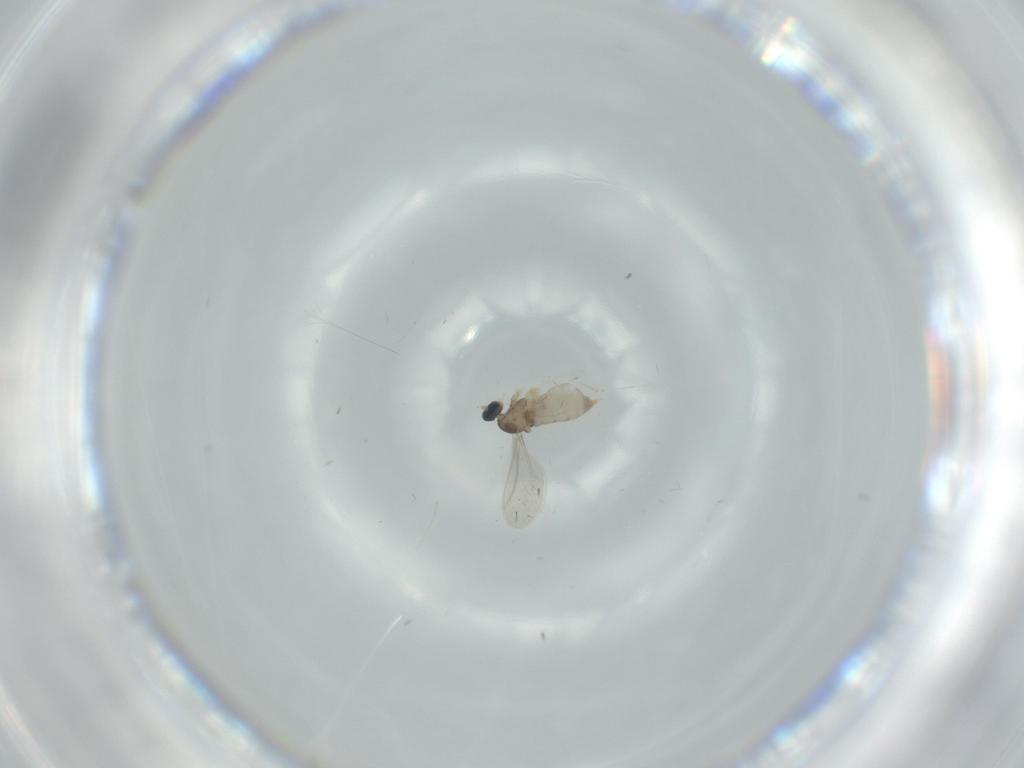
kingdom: Animalia
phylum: Arthropoda
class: Insecta
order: Diptera
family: Cecidomyiidae
